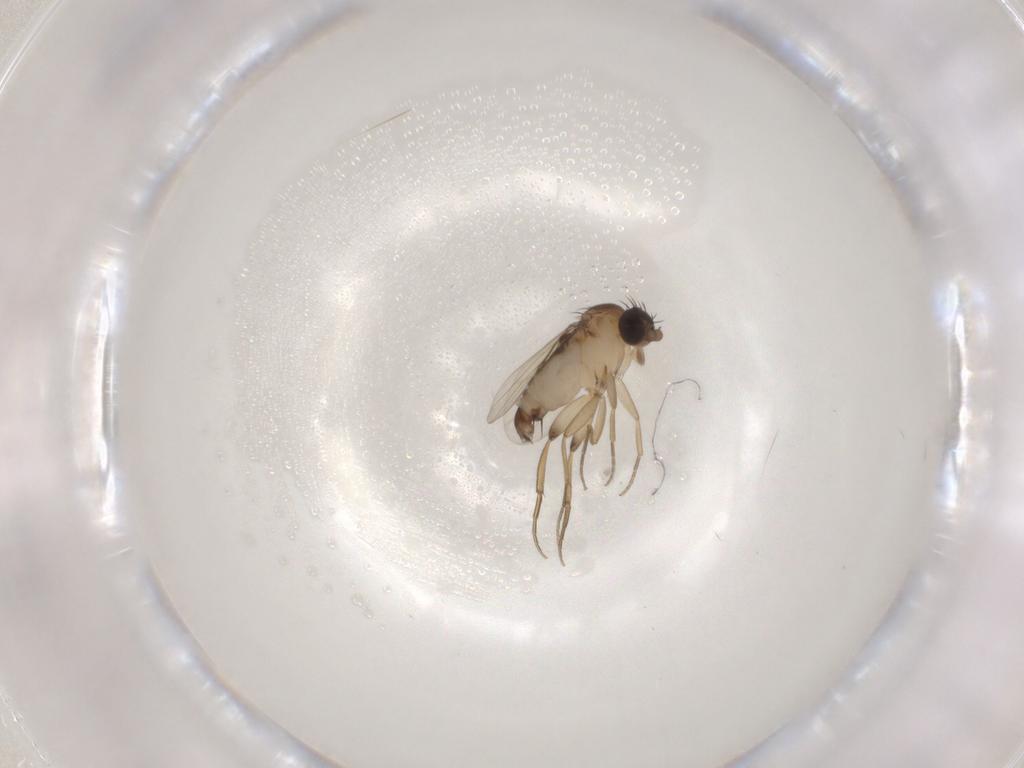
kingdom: Animalia
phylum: Arthropoda
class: Insecta
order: Diptera
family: Phoridae
